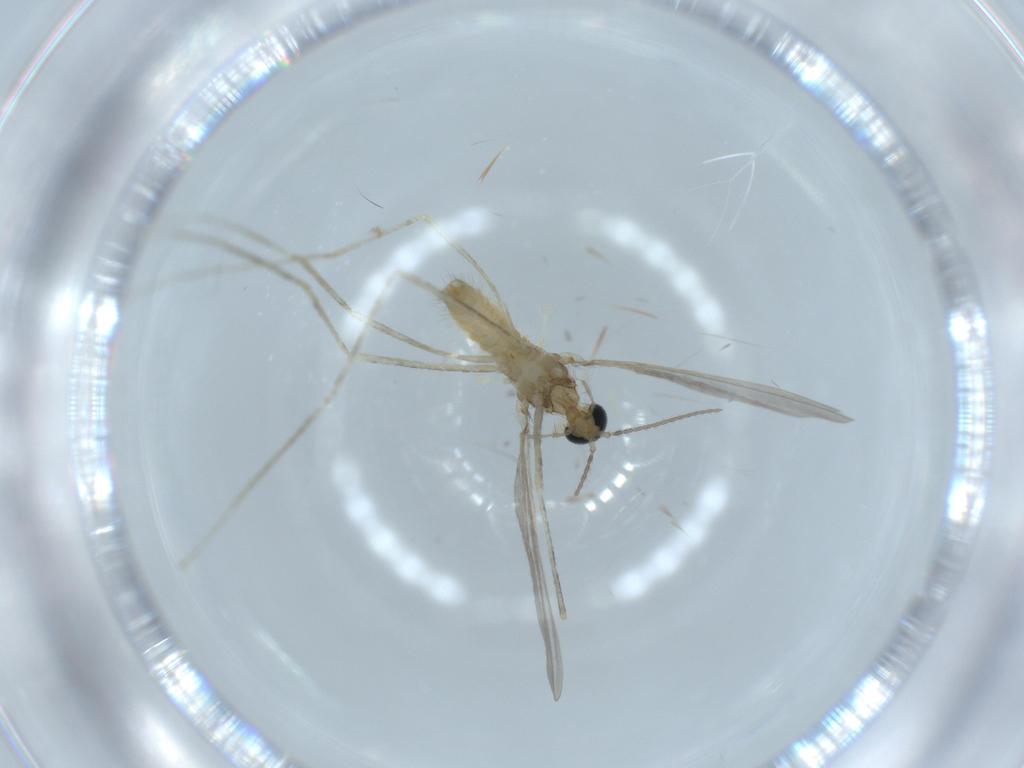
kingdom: Animalia
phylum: Arthropoda
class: Insecta
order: Diptera
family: Cecidomyiidae
